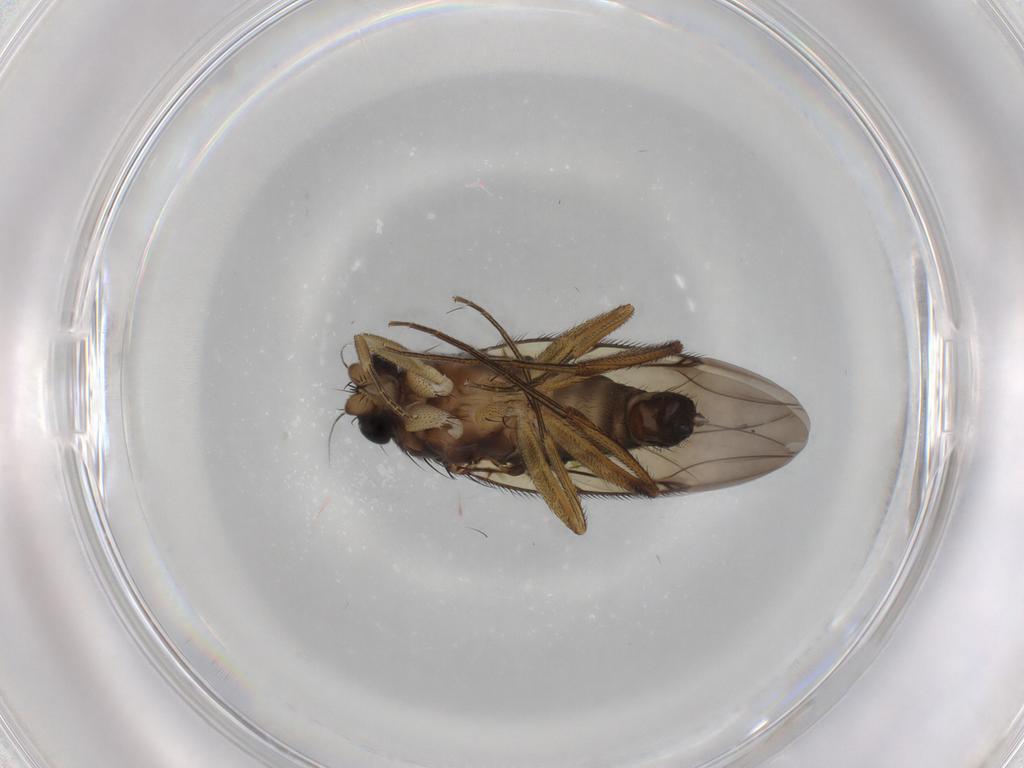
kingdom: Animalia
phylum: Arthropoda
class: Insecta
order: Diptera
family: Phoridae
